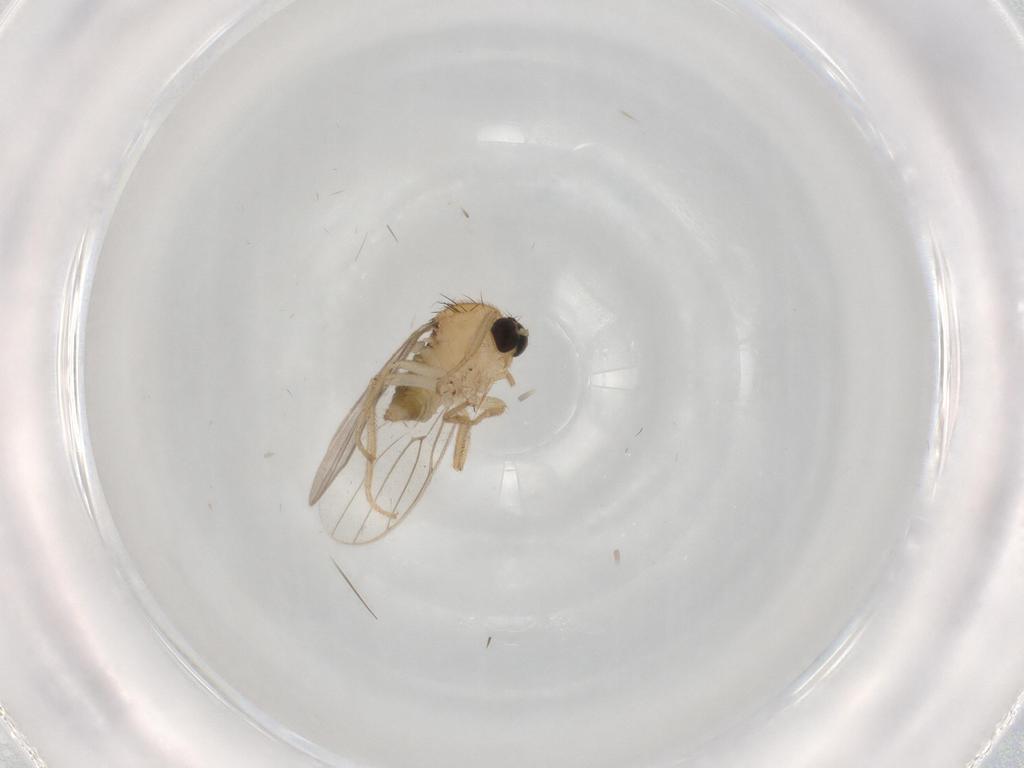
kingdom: Animalia
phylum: Arthropoda
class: Insecta
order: Diptera
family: Hybotidae
